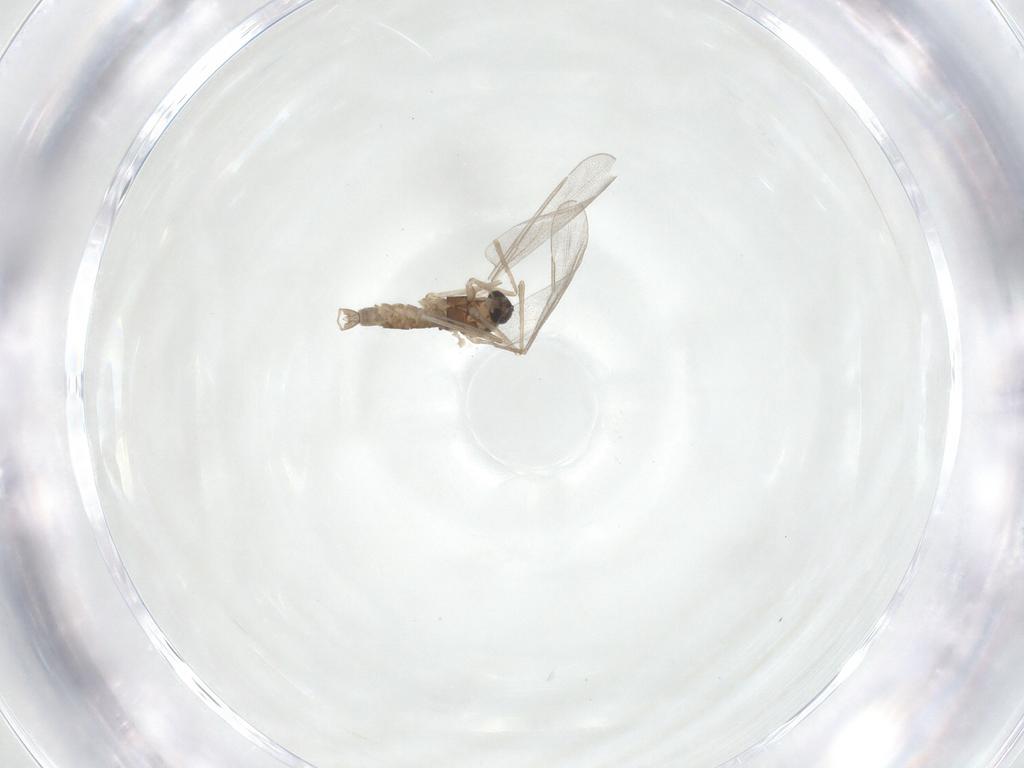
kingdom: Animalia
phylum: Arthropoda
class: Insecta
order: Diptera
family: Cecidomyiidae
